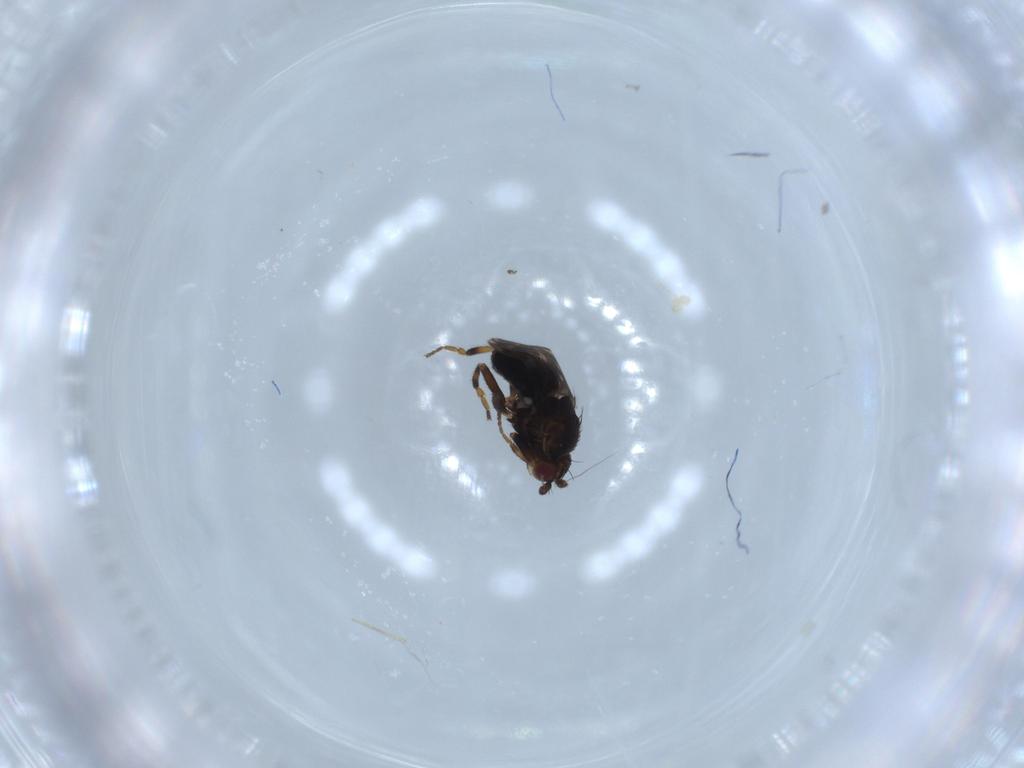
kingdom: Animalia
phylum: Arthropoda
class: Insecta
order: Diptera
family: Sphaeroceridae
